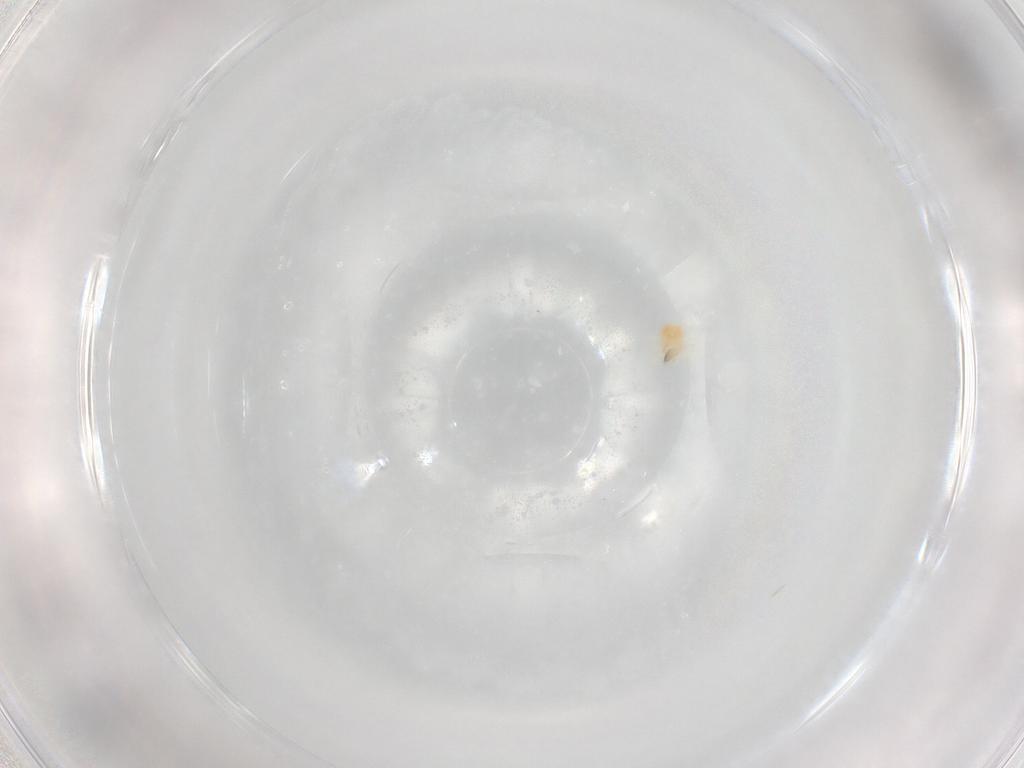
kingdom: Animalia
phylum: Arthropoda
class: Arachnida
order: Trombidiformes
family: Anystidae
